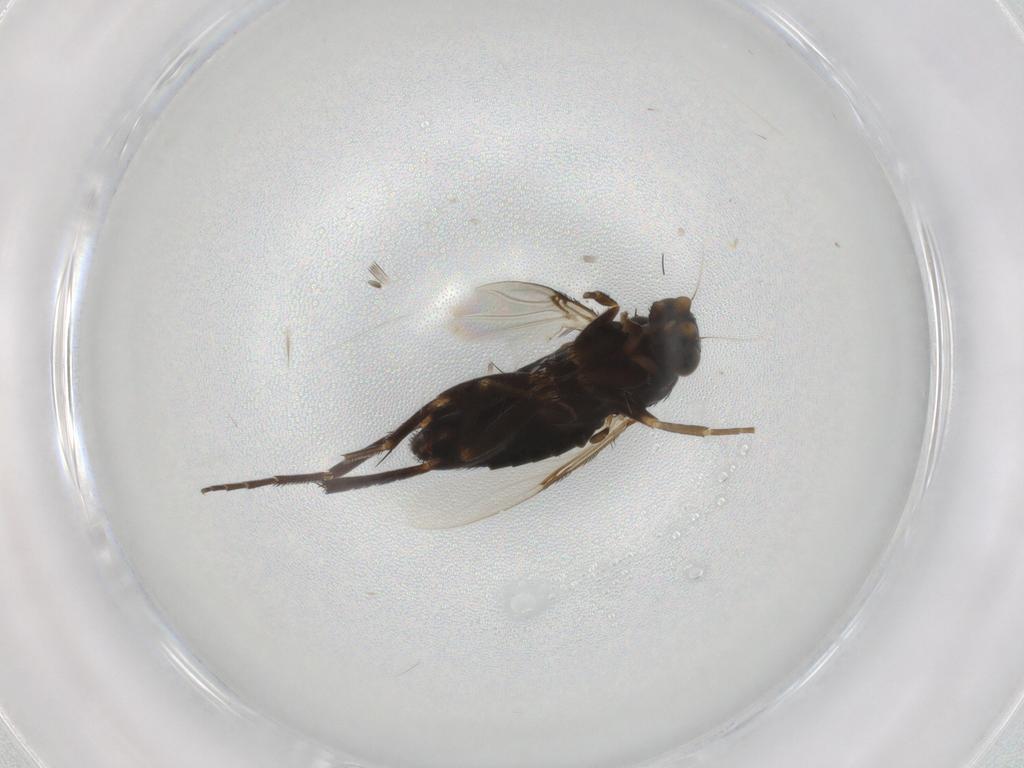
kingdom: Animalia
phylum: Arthropoda
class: Insecta
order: Diptera
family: Phoridae
